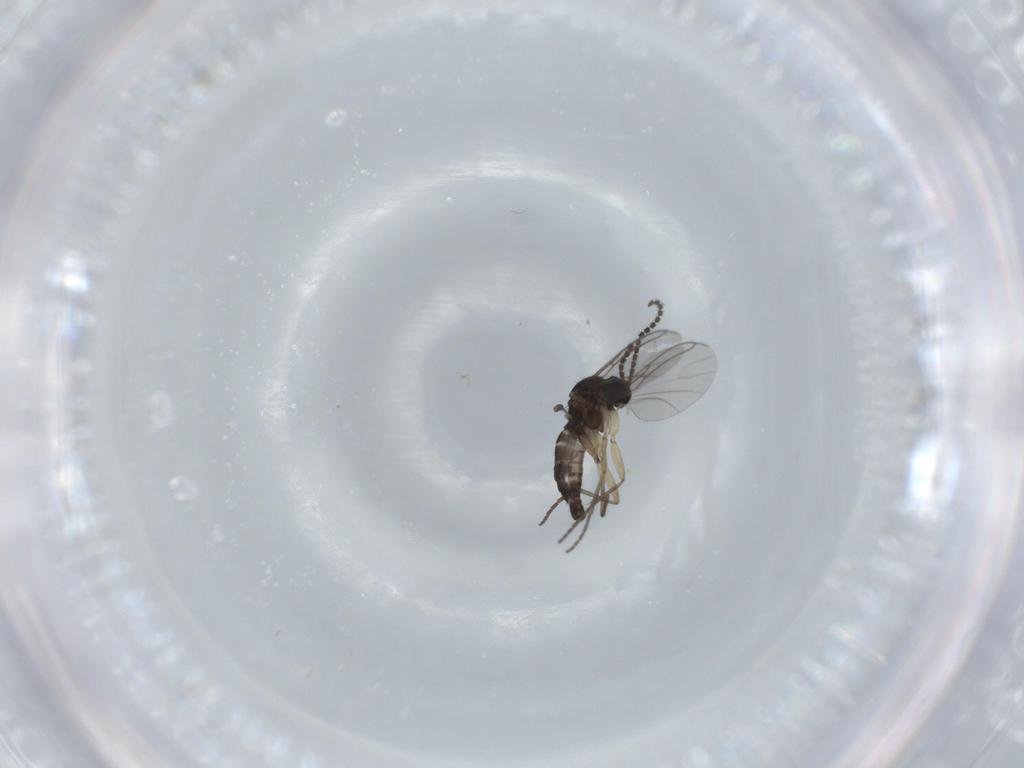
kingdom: Animalia
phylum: Arthropoda
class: Insecta
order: Diptera
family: Sciaridae
